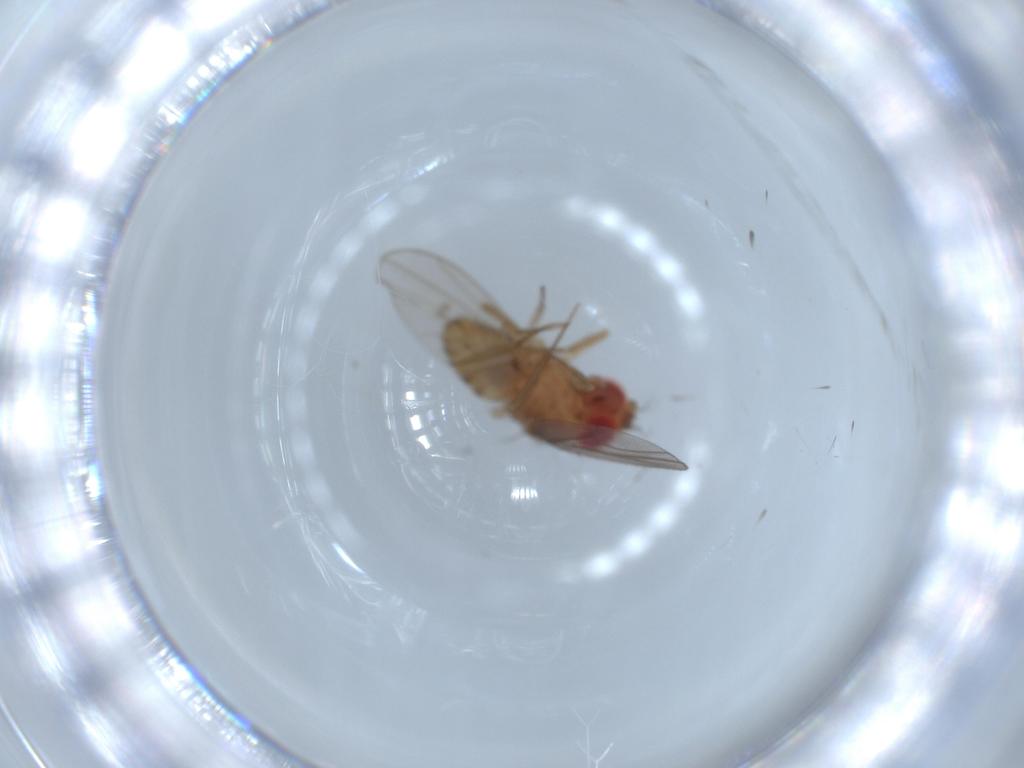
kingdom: Animalia
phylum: Arthropoda
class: Insecta
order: Diptera
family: Drosophilidae
